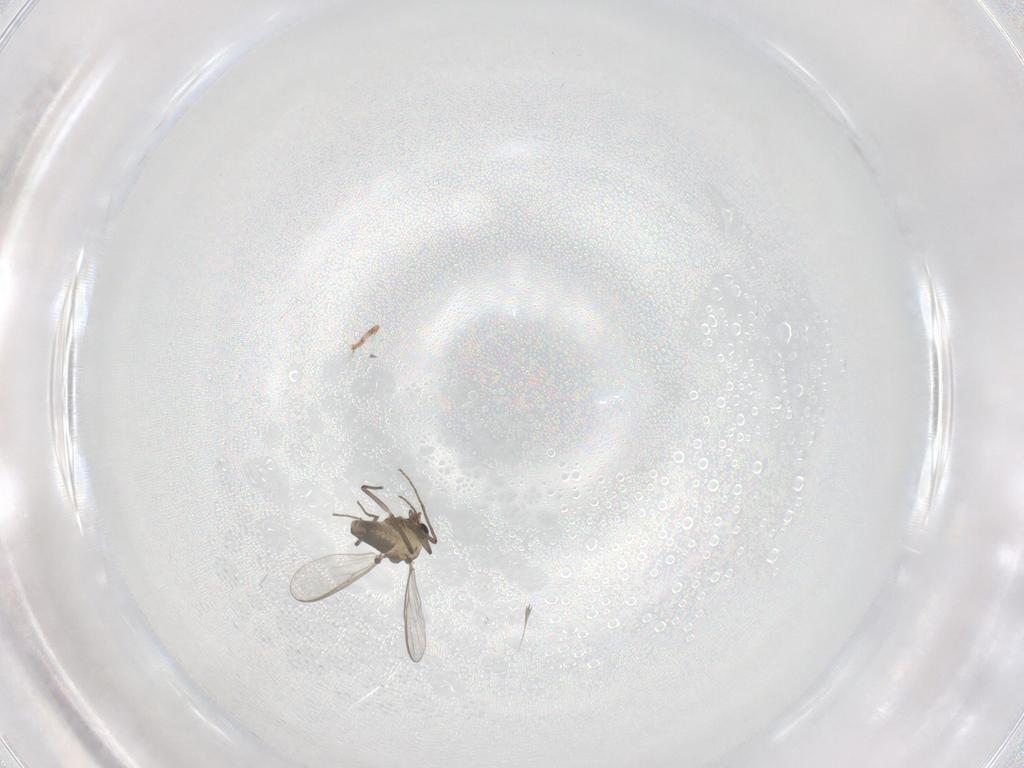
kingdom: Animalia
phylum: Arthropoda
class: Insecta
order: Diptera
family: Chironomidae
